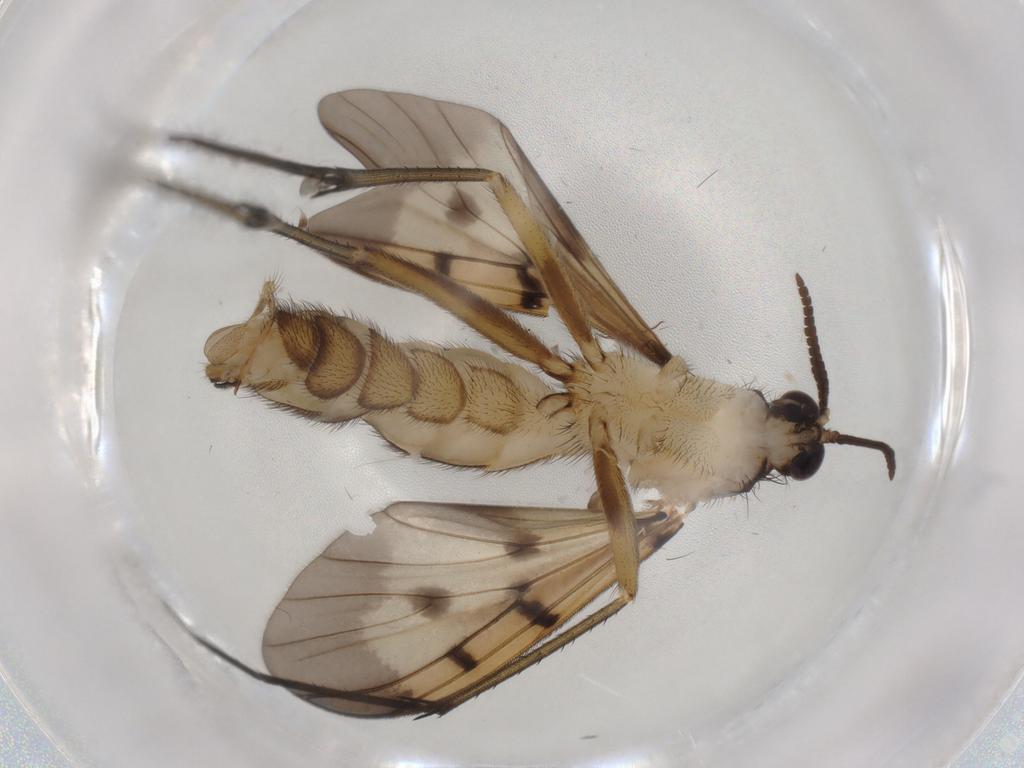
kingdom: Animalia
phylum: Arthropoda
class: Insecta
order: Diptera
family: Mycetophilidae
